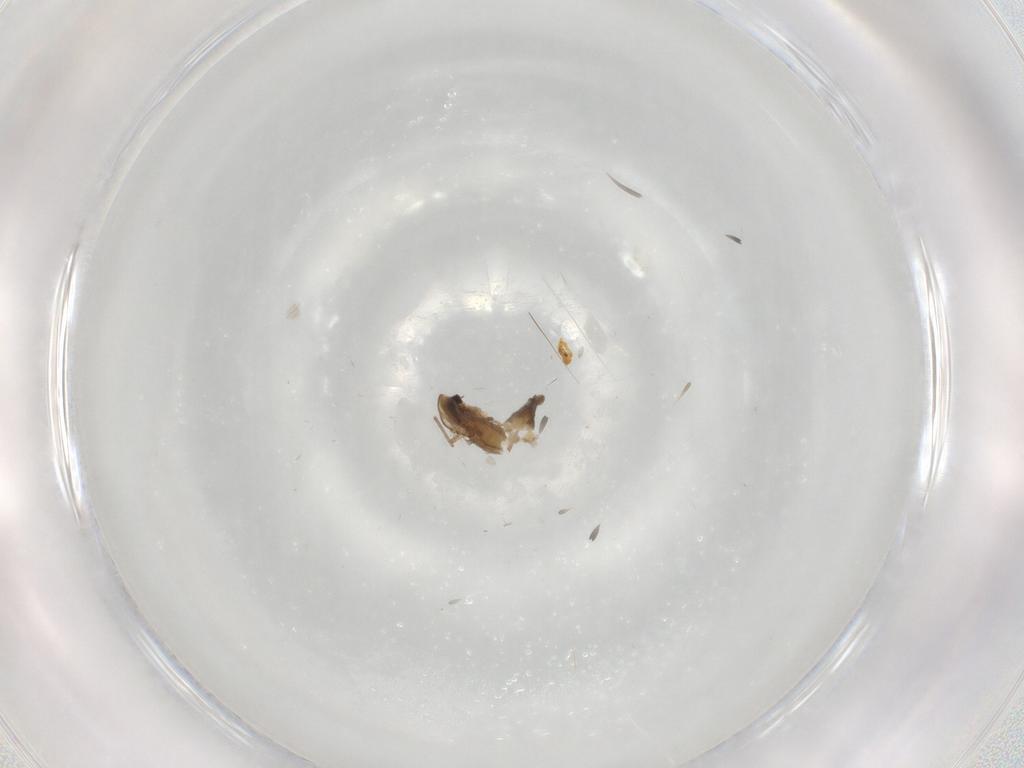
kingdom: Animalia
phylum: Arthropoda
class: Insecta
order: Diptera
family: Chironomidae
